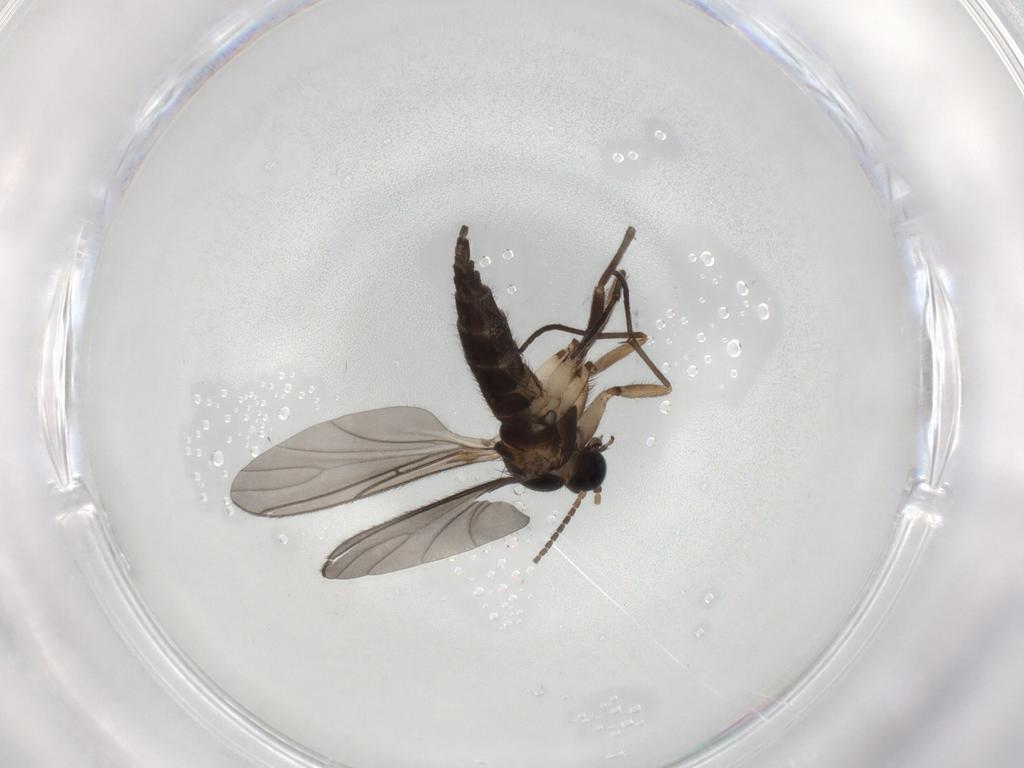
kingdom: Animalia
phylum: Arthropoda
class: Insecta
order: Diptera
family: Sciaridae
